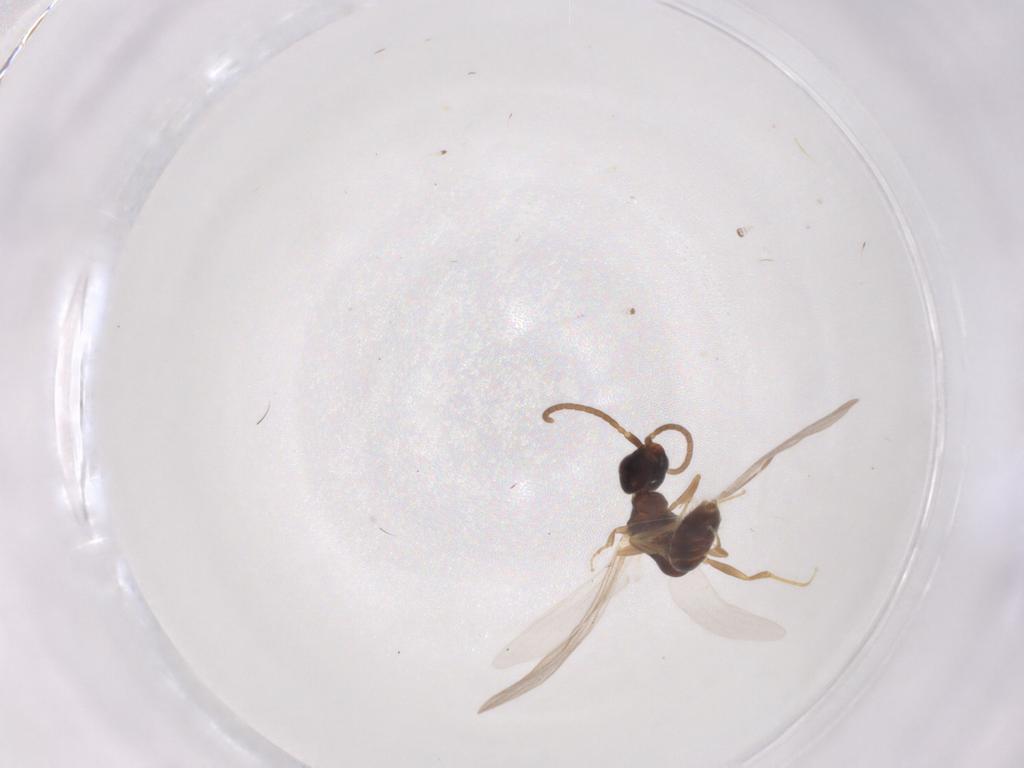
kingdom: Animalia
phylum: Arthropoda
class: Insecta
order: Hymenoptera
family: Bethylidae
